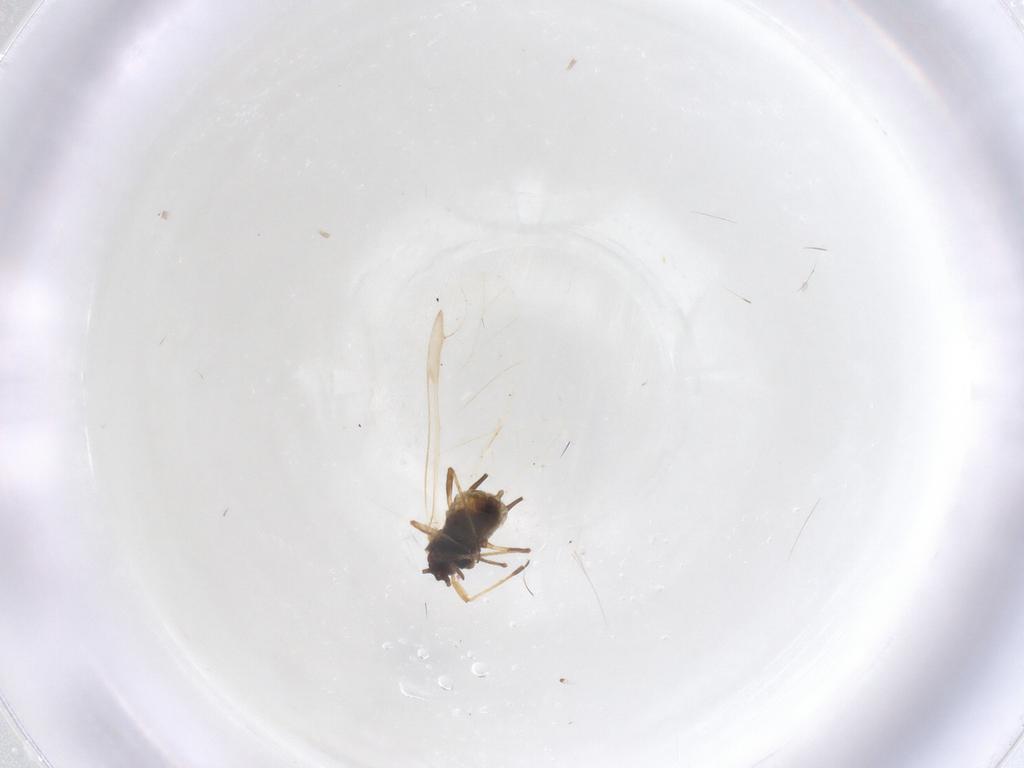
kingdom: Animalia
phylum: Arthropoda
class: Insecta
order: Hemiptera
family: Aphididae
